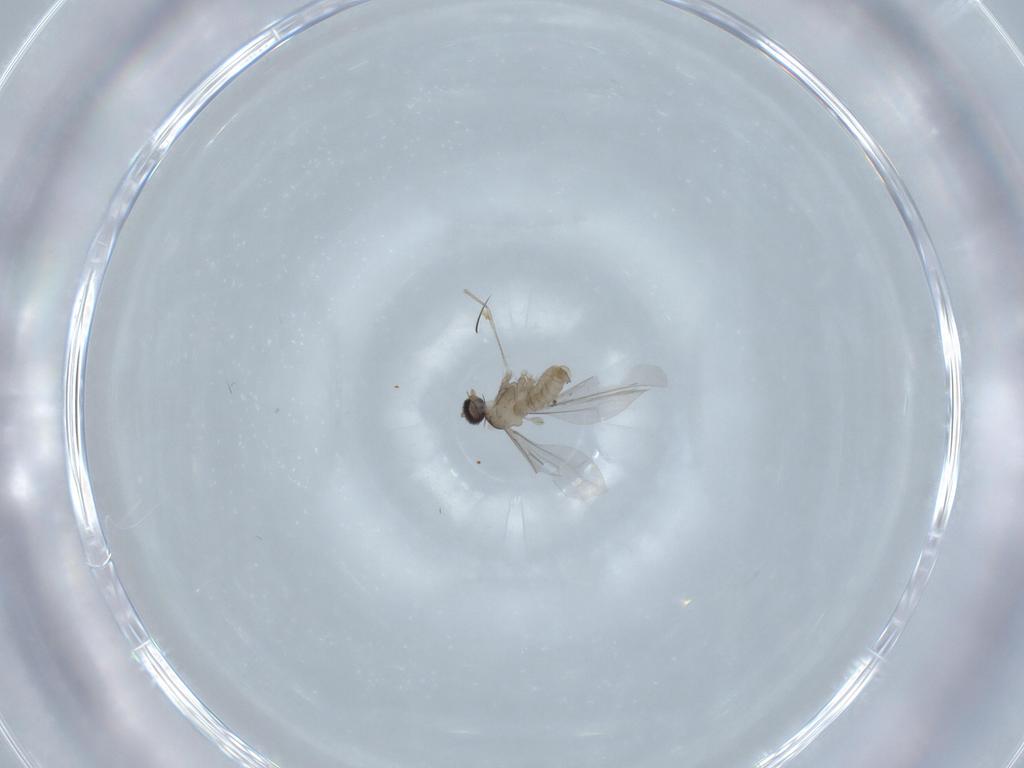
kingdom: Animalia
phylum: Arthropoda
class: Insecta
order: Diptera
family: Cecidomyiidae
